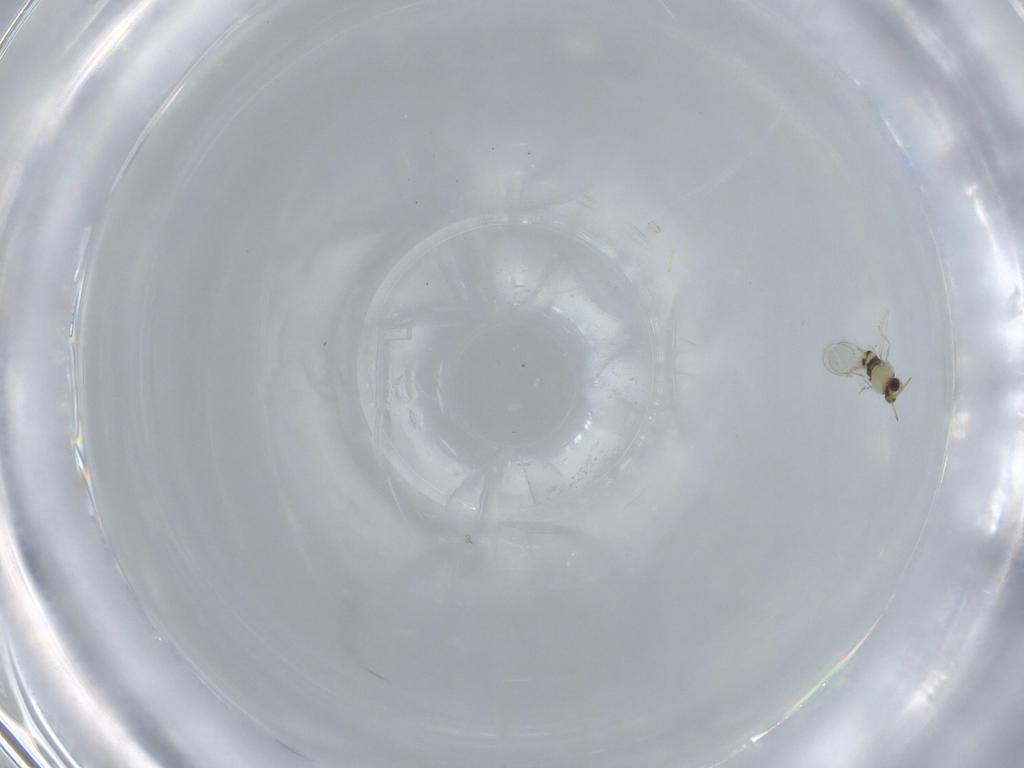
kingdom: Animalia
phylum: Arthropoda
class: Insecta
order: Hymenoptera
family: Aphelinidae
